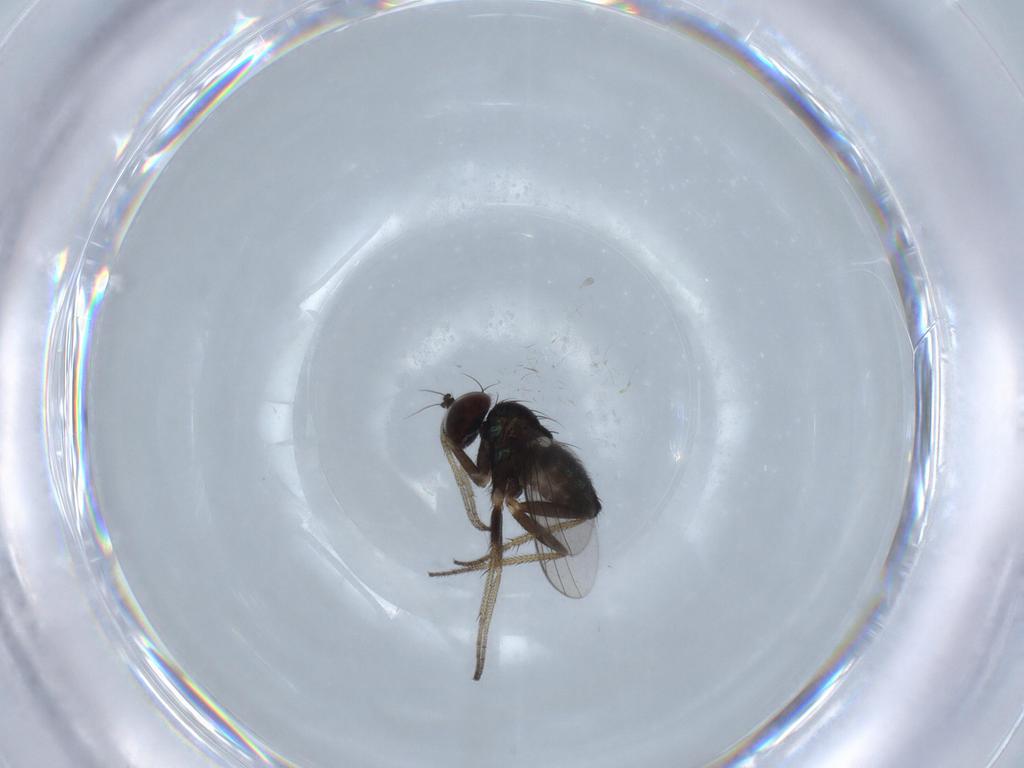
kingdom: Animalia
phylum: Arthropoda
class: Insecta
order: Diptera
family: Dolichopodidae
